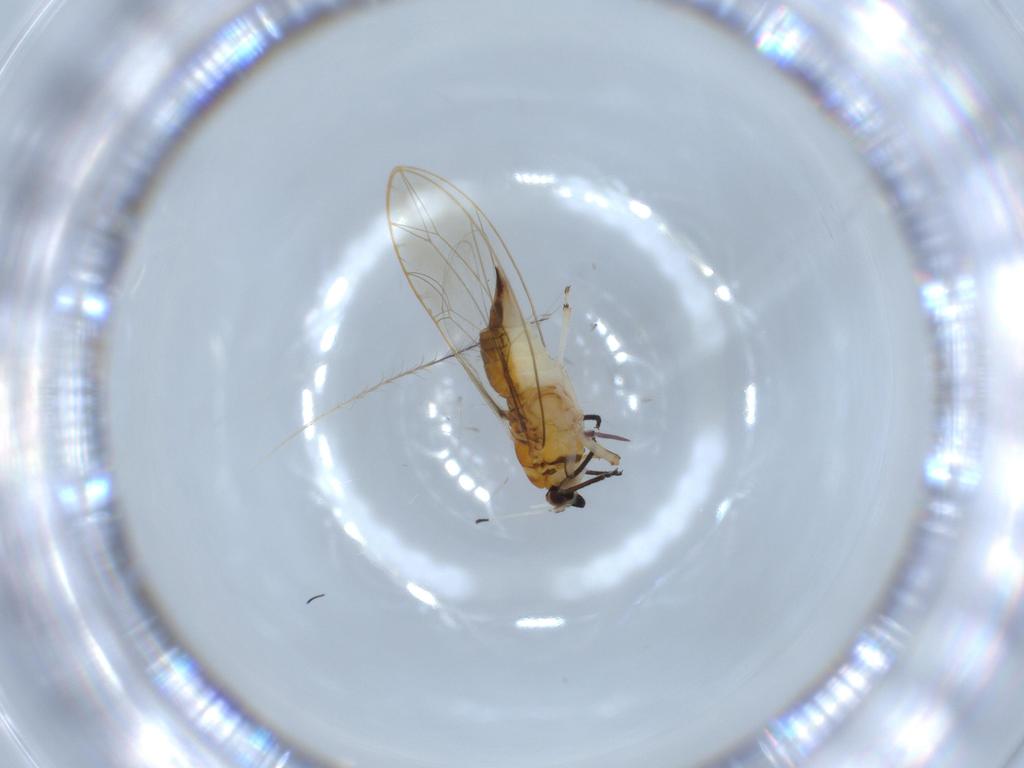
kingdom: Animalia
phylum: Arthropoda
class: Insecta
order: Hemiptera
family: Triozidae
